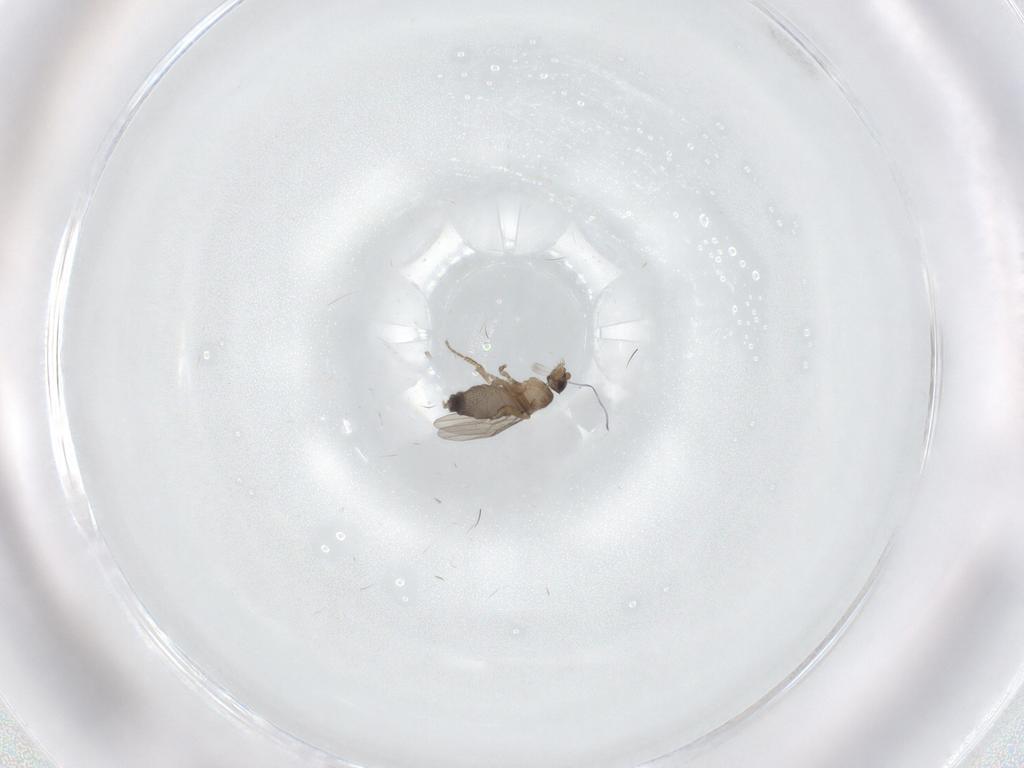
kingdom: Animalia
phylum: Arthropoda
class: Insecta
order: Diptera
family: Phoridae
